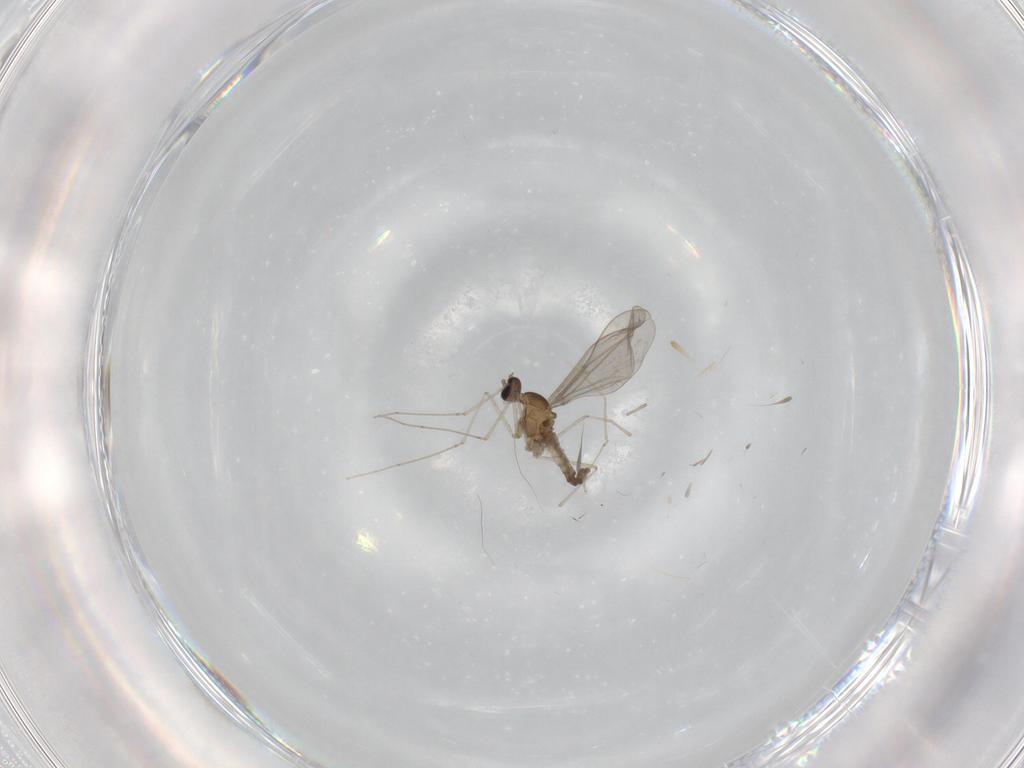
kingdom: Animalia
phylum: Arthropoda
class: Insecta
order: Diptera
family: Cecidomyiidae
